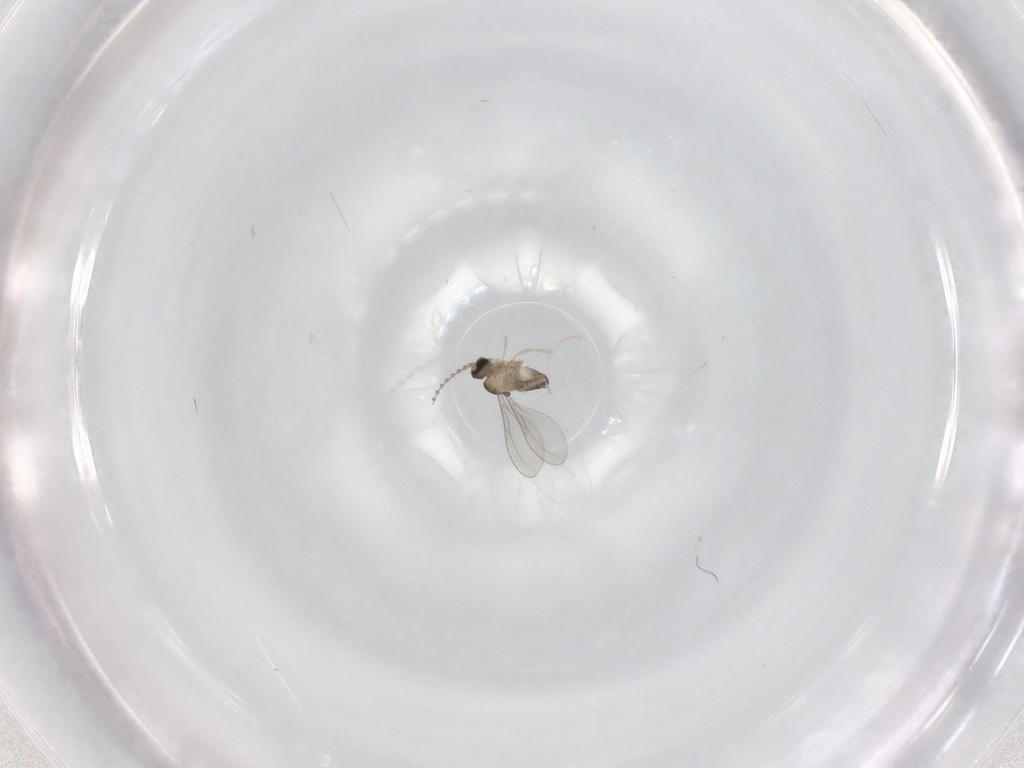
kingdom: Animalia
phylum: Arthropoda
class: Insecta
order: Diptera
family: Cecidomyiidae
